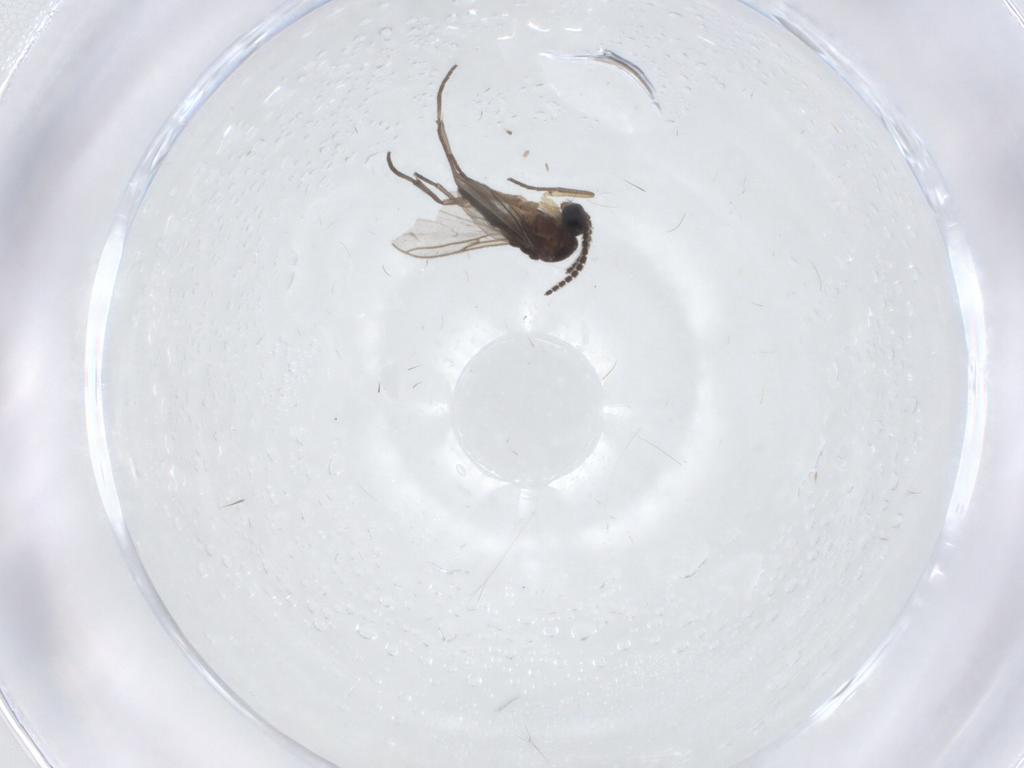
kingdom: Animalia
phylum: Arthropoda
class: Insecta
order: Diptera
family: Sciaridae
